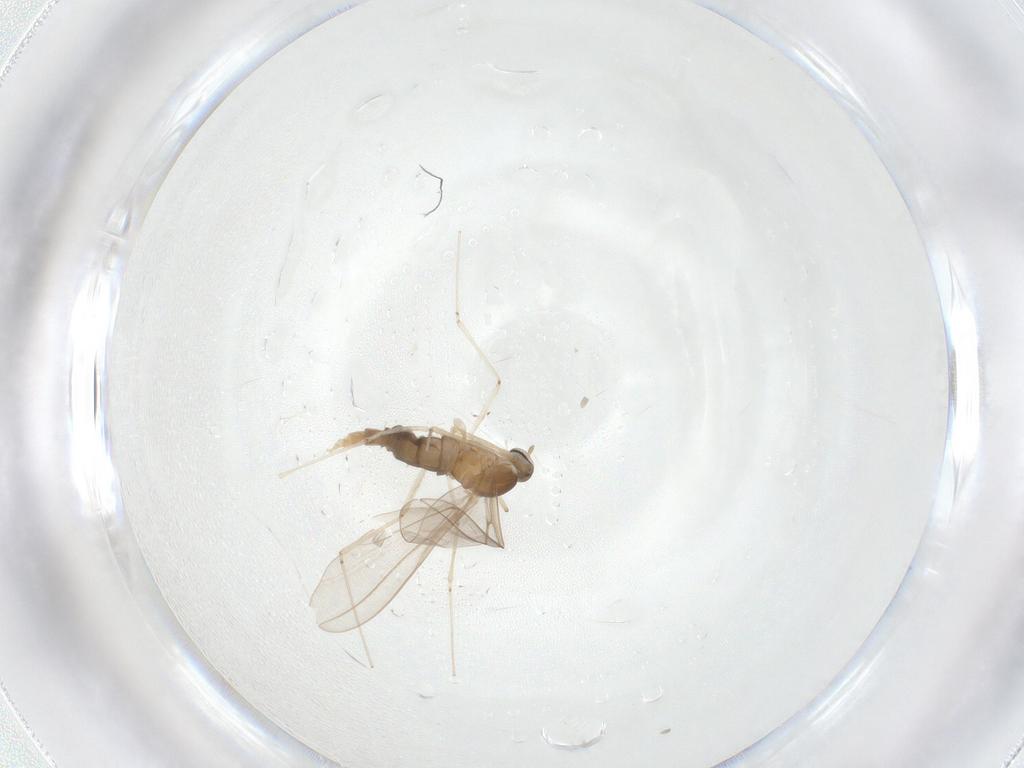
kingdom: Animalia
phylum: Arthropoda
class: Insecta
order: Diptera
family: Cecidomyiidae
